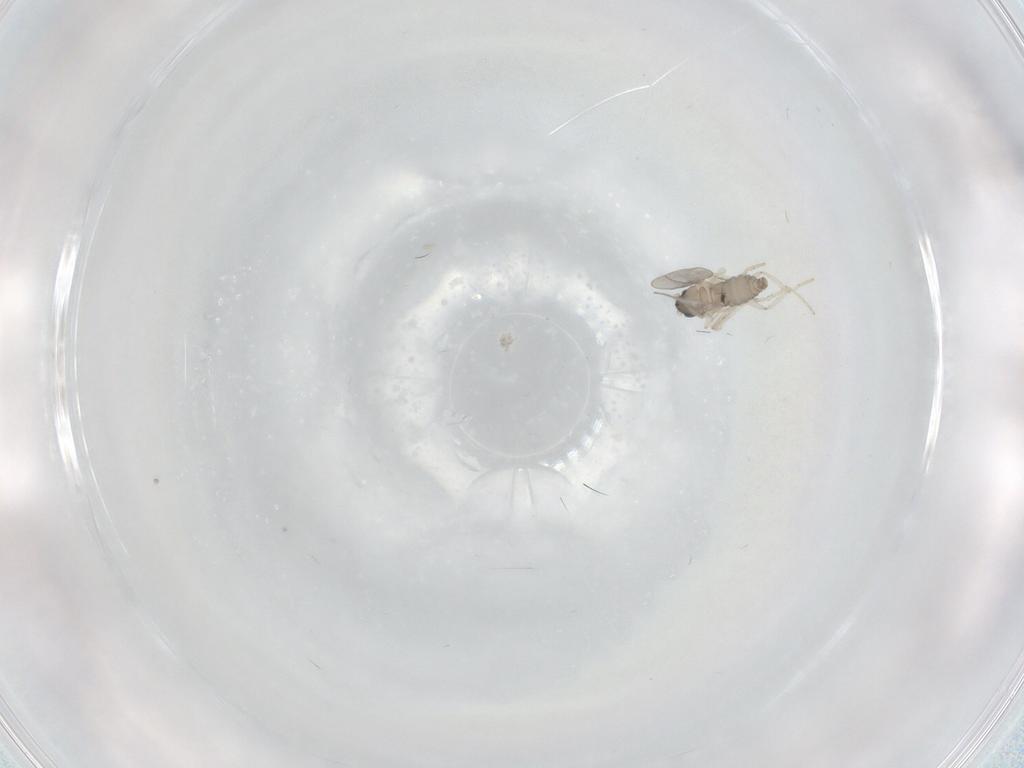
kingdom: Animalia
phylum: Arthropoda
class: Insecta
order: Diptera
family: Cecidomyiidae
